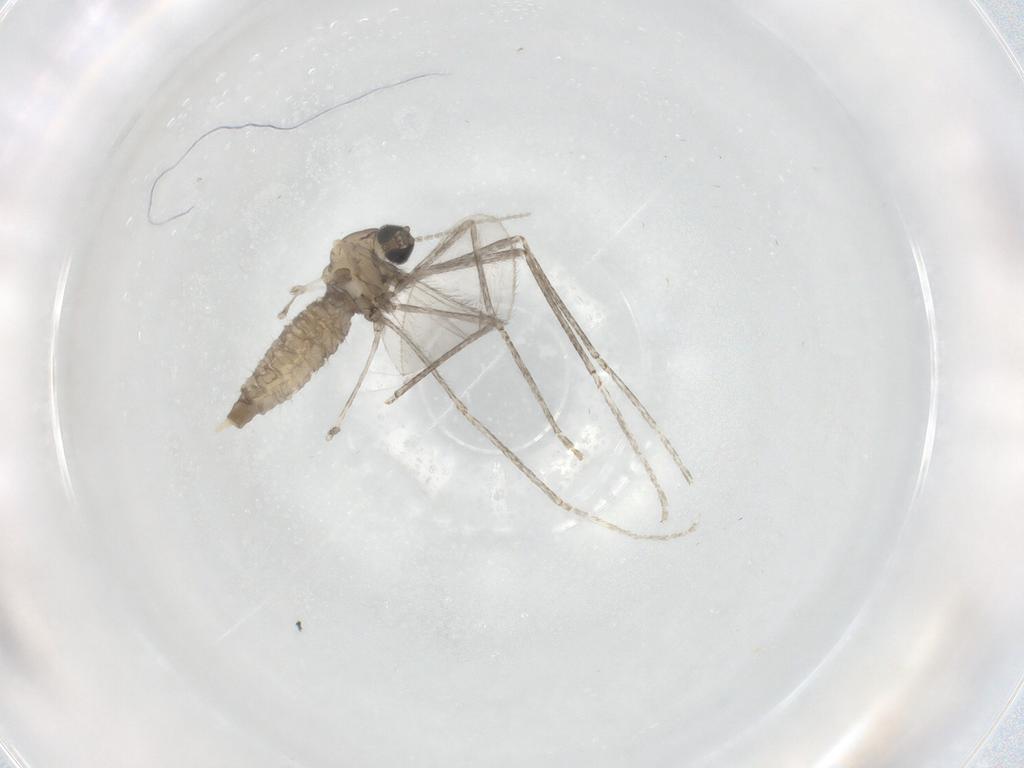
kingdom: Animalia
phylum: Arthropoda
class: Insecta
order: Diptera
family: Cecidomyiidae
